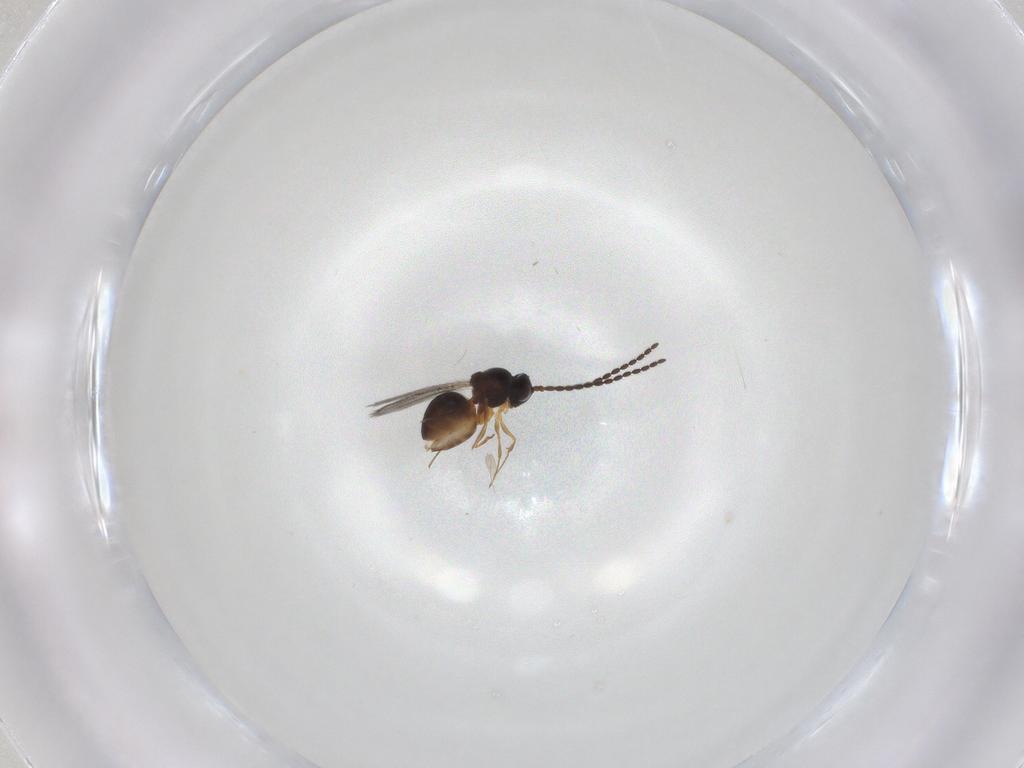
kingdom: Animalia
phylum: Arthropoda
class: Insecta
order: Hymenoptera
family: Figitidae
